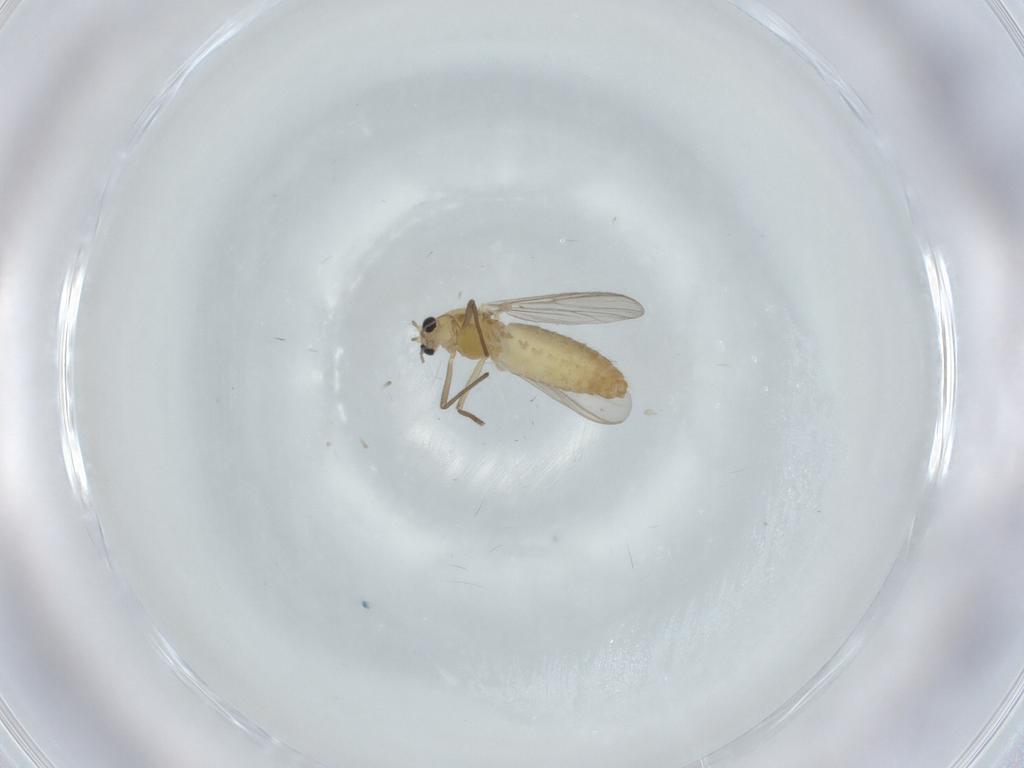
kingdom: Animalia
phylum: Arthropoda
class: Insecta
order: Diptera
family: Chironomidae
